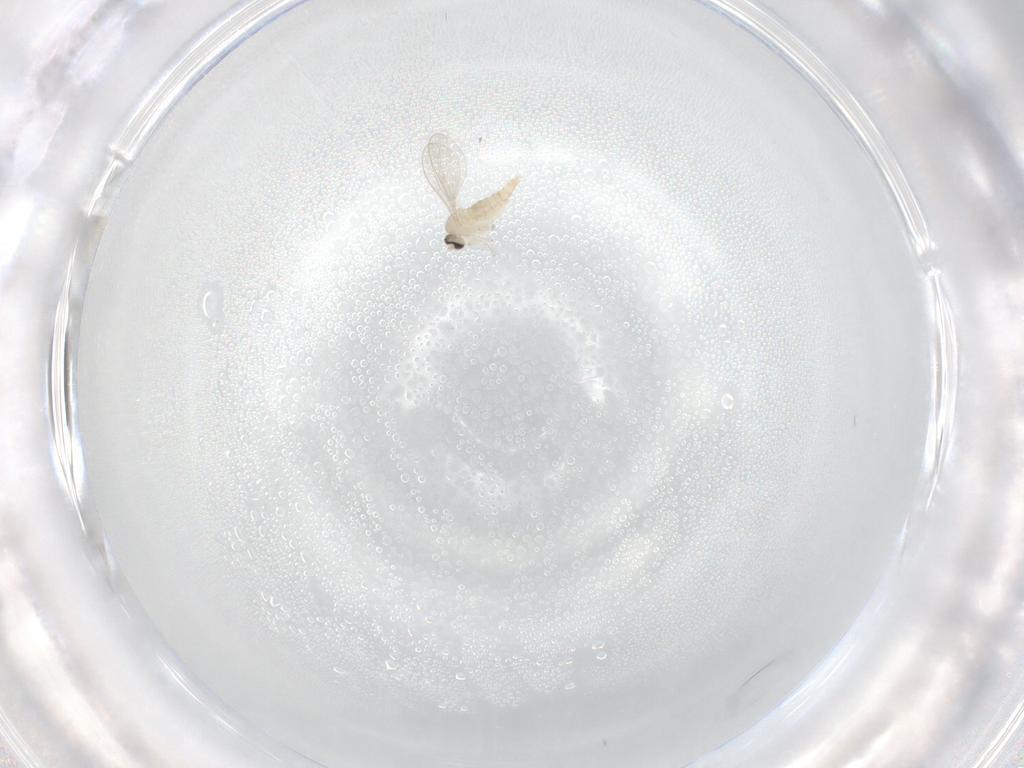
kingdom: Animalia
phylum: Arthropoda
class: Insecta
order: Diptera
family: Cecidomyiidae
